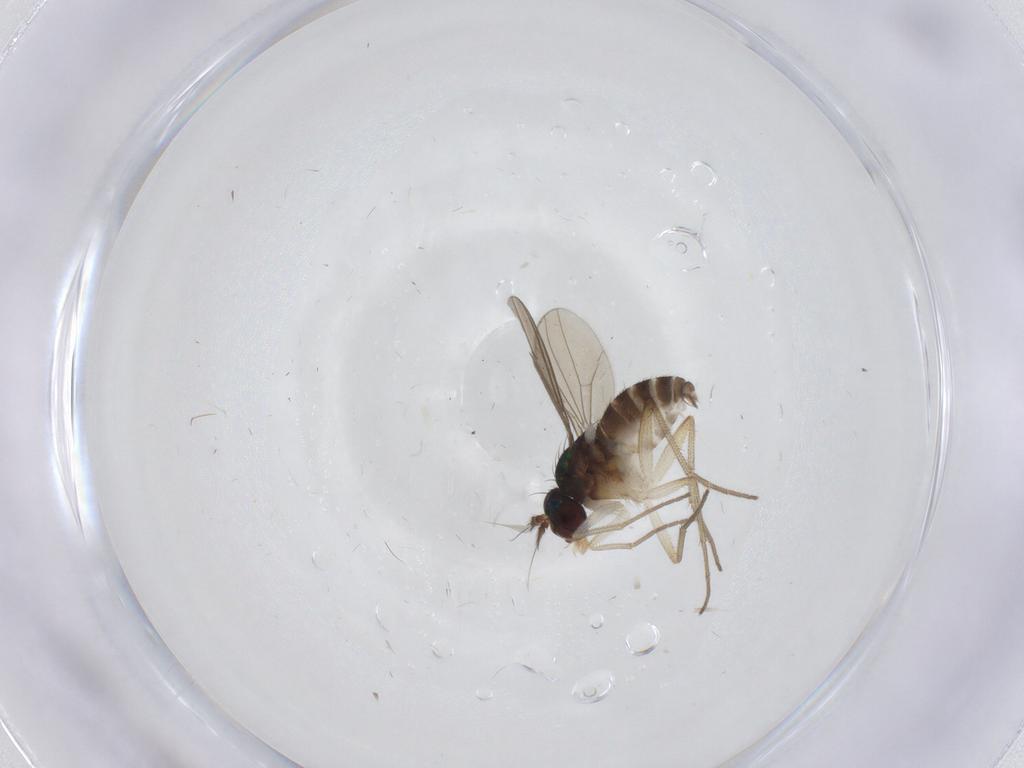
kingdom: Animalia
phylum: Arthropoda
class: Insecta
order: Diptera
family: Dolichopodidae
